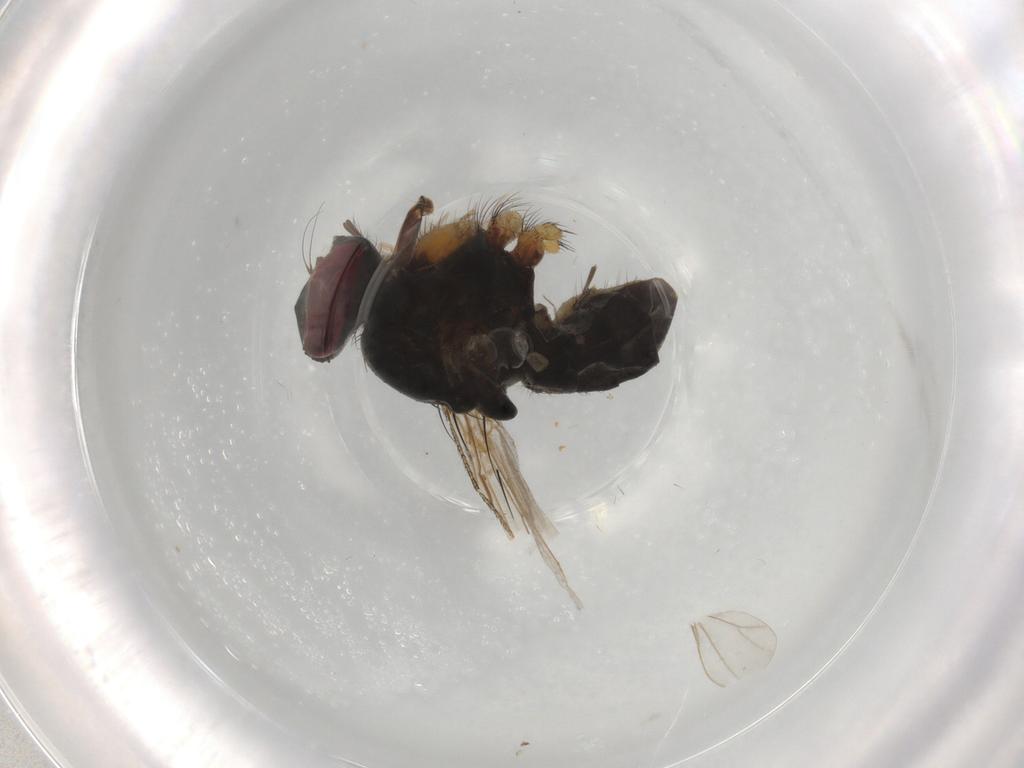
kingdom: Animalia
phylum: Arthropoda
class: Insecta
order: Diptera
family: Muscidae
